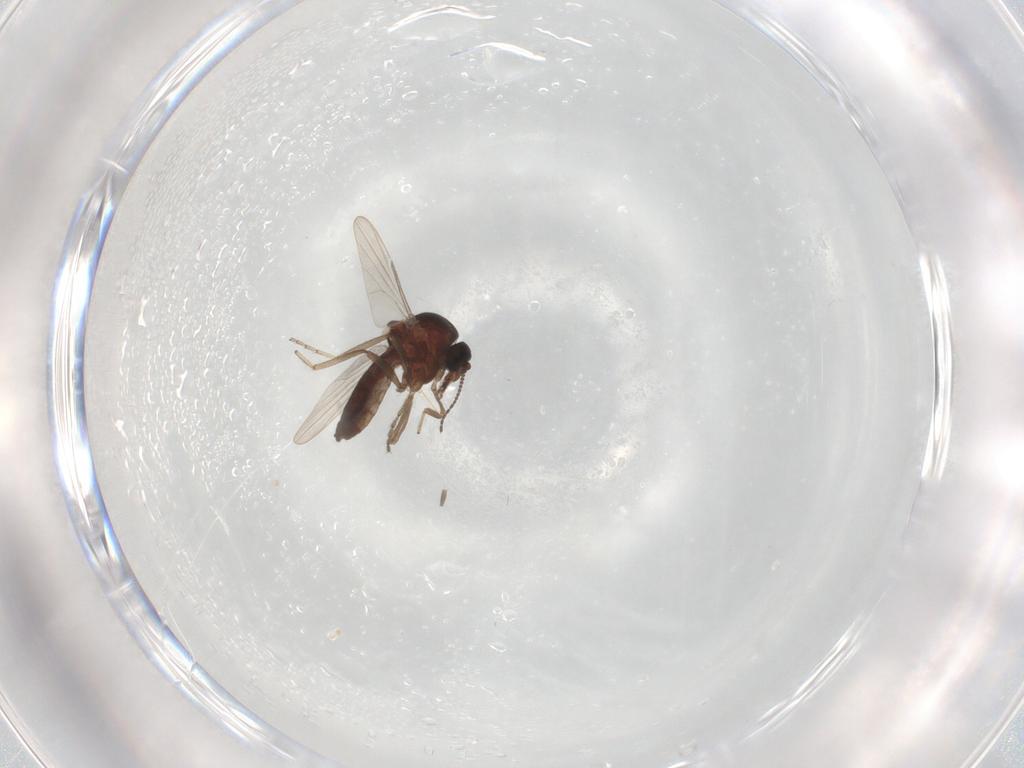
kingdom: Animalia
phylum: Arthropoda
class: Insecta
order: Diptera
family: Ceratopogonidae
